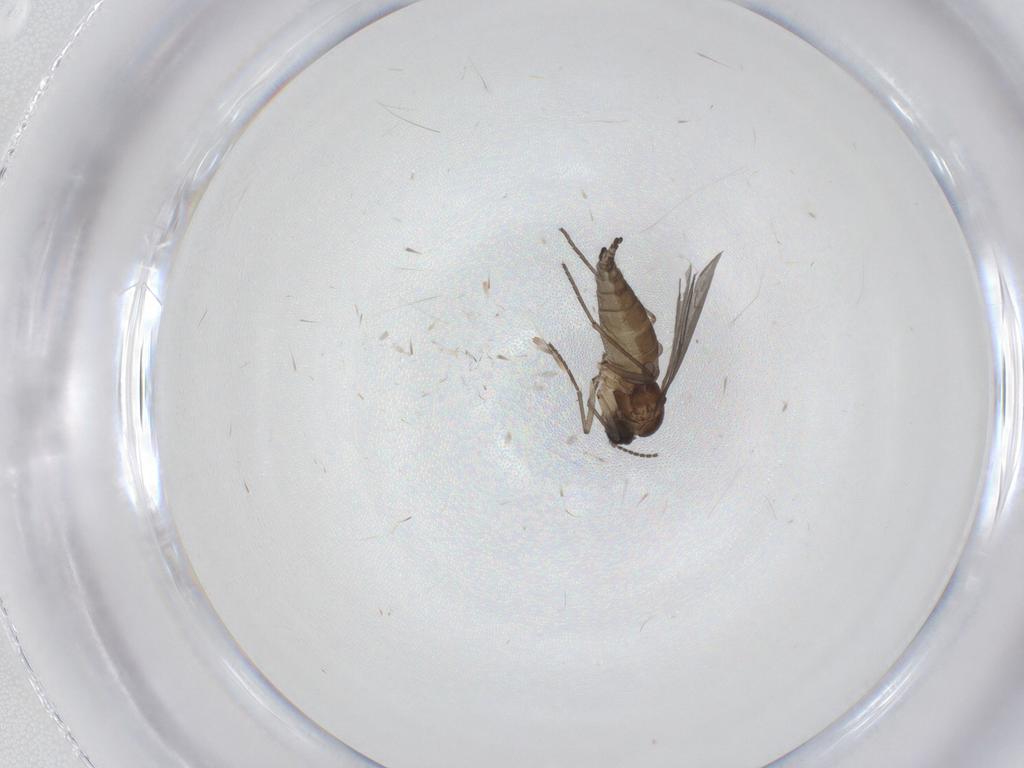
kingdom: Animalia
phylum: Arthropoda
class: Insecta
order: Diptera
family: Sciaridae
